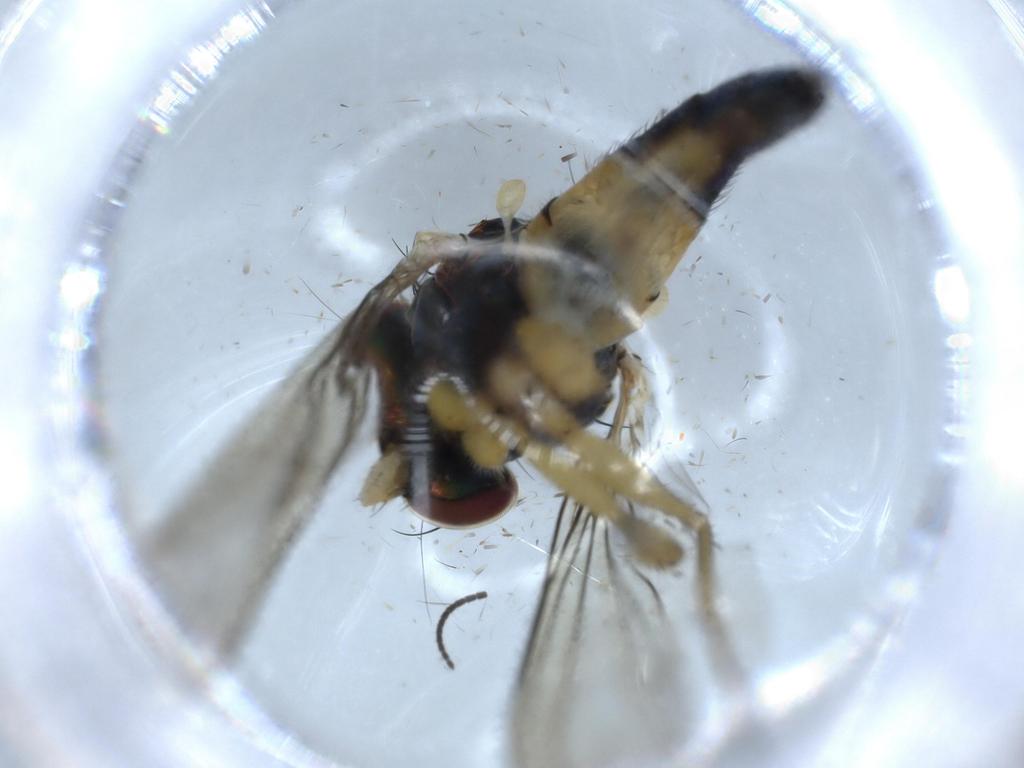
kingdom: Animalia
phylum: Arthropoda
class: Insecta
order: Diptera
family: Dolichopodidae
